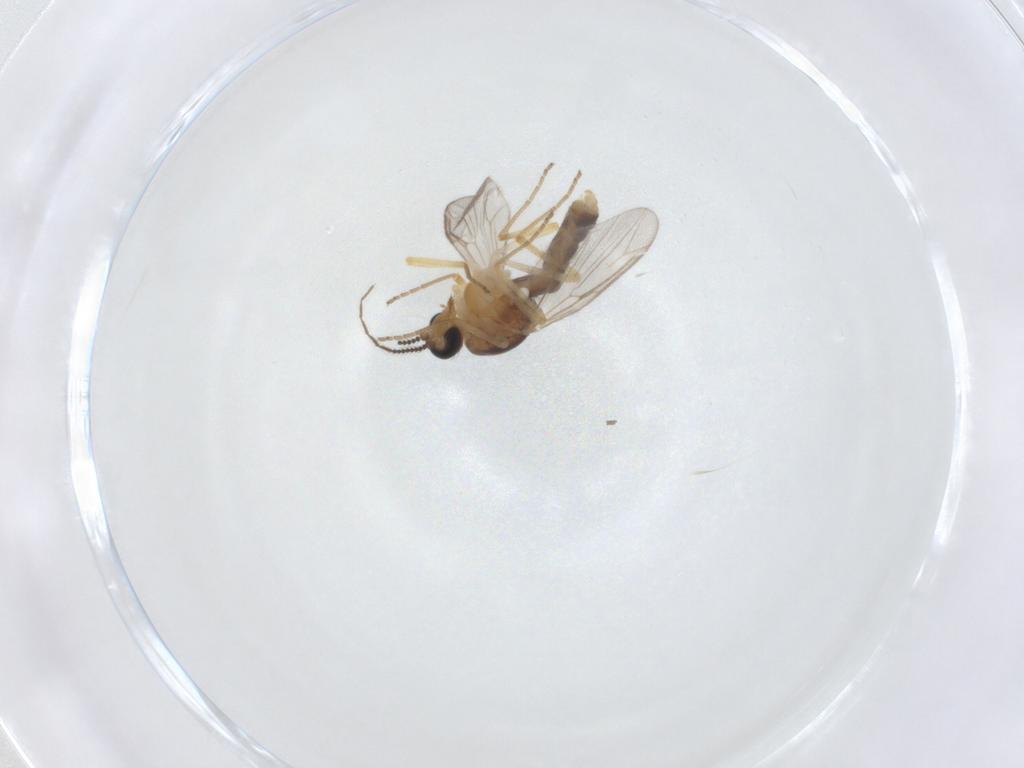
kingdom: Animalia
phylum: Arthropoda
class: Insecta
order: Diptera
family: Ceratopogonidae
